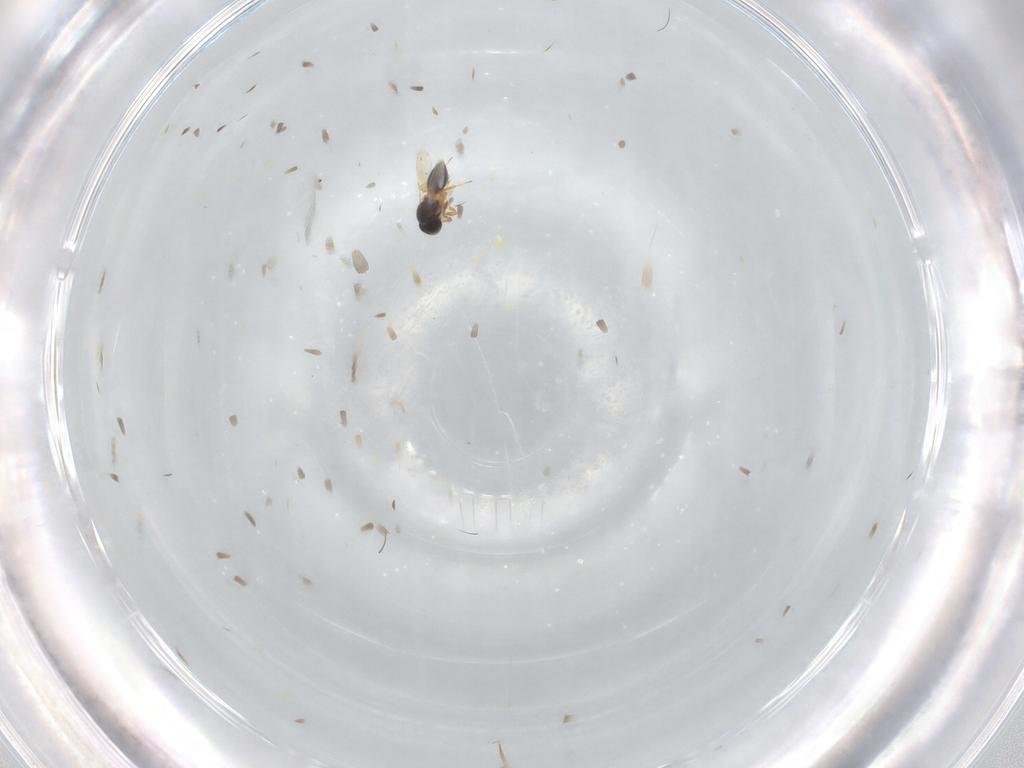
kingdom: Animalia
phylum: Arthropoda
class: Insecta
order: Hymenoptera
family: Platygastridae
